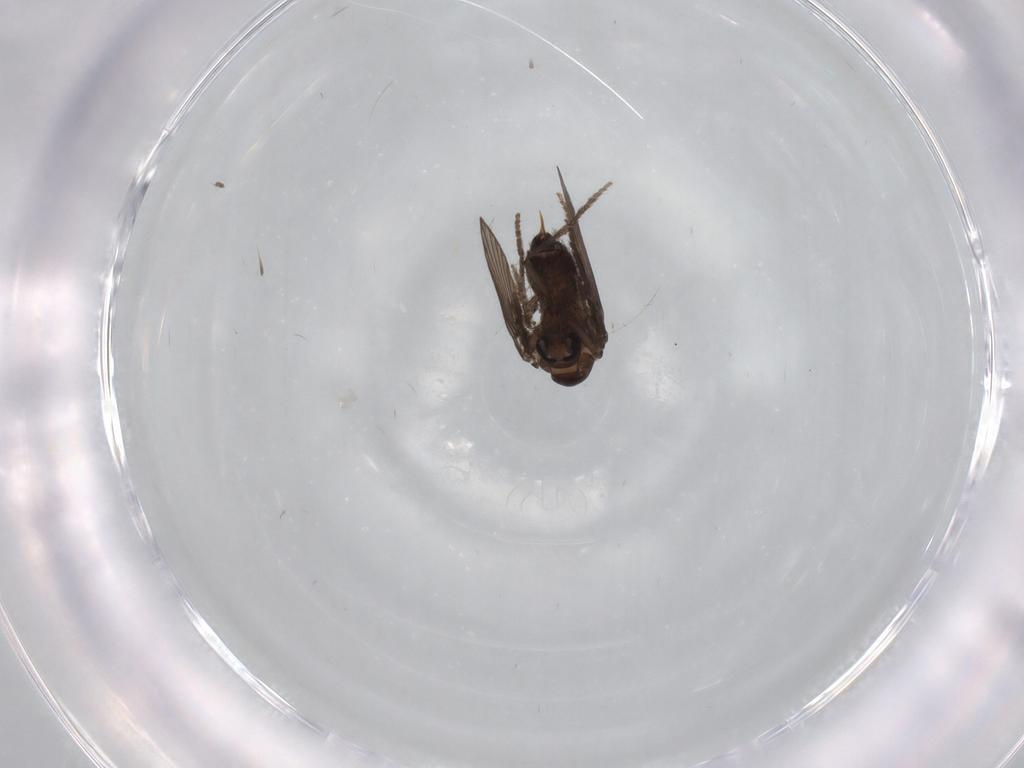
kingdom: Animalia
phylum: Arthropoda
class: Insecta
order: Diptera
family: Psychodidae
